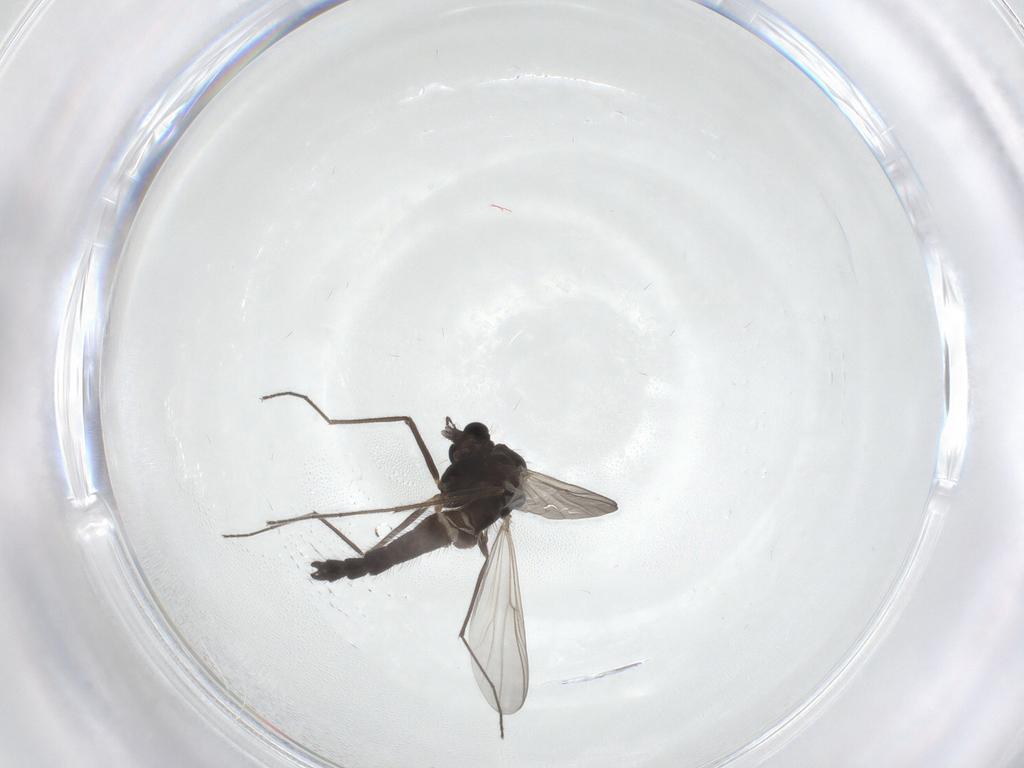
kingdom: Animalia
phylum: Arthropoda
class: Insecta
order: Diptera
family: Chironomidae
